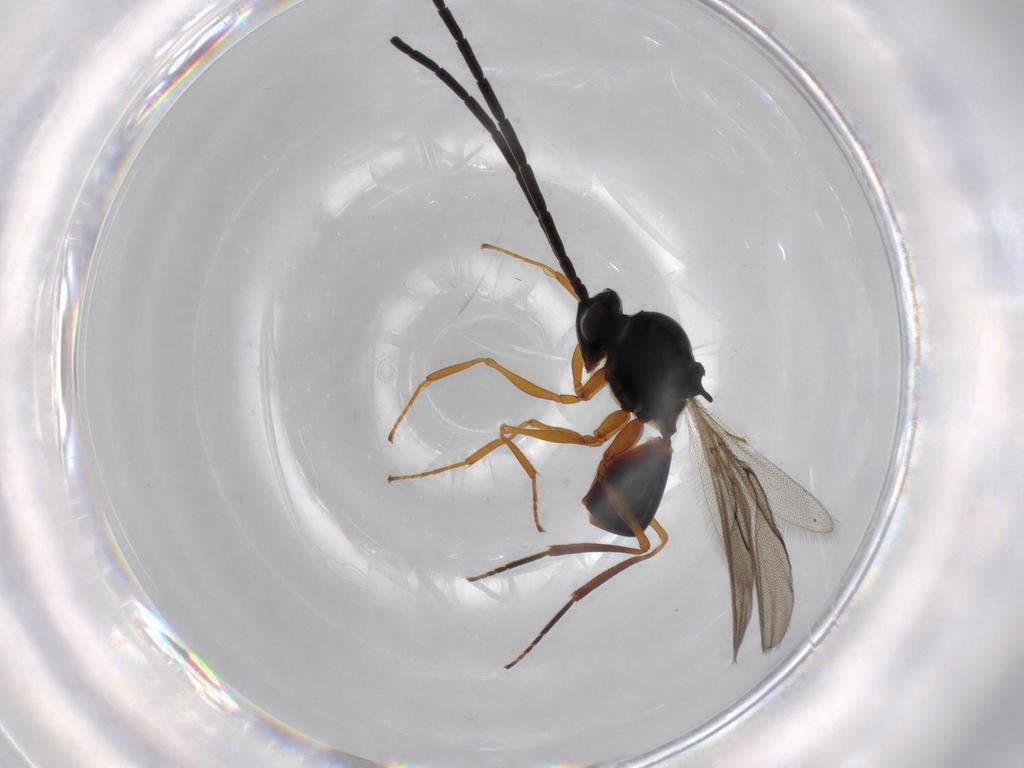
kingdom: Animalia
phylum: Arthropoda
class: Insecta
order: Hymenoptera
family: Figitidae
